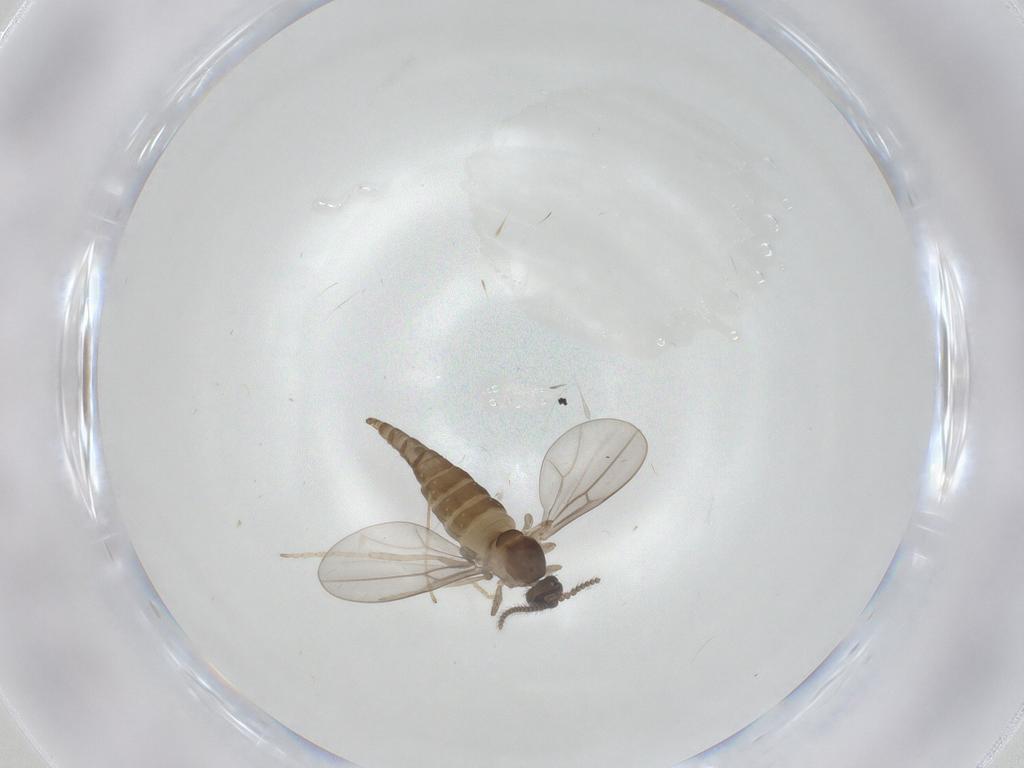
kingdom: Animalia
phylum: Arthropoda
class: Insecta
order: Diptera
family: Cecidomyiidae
